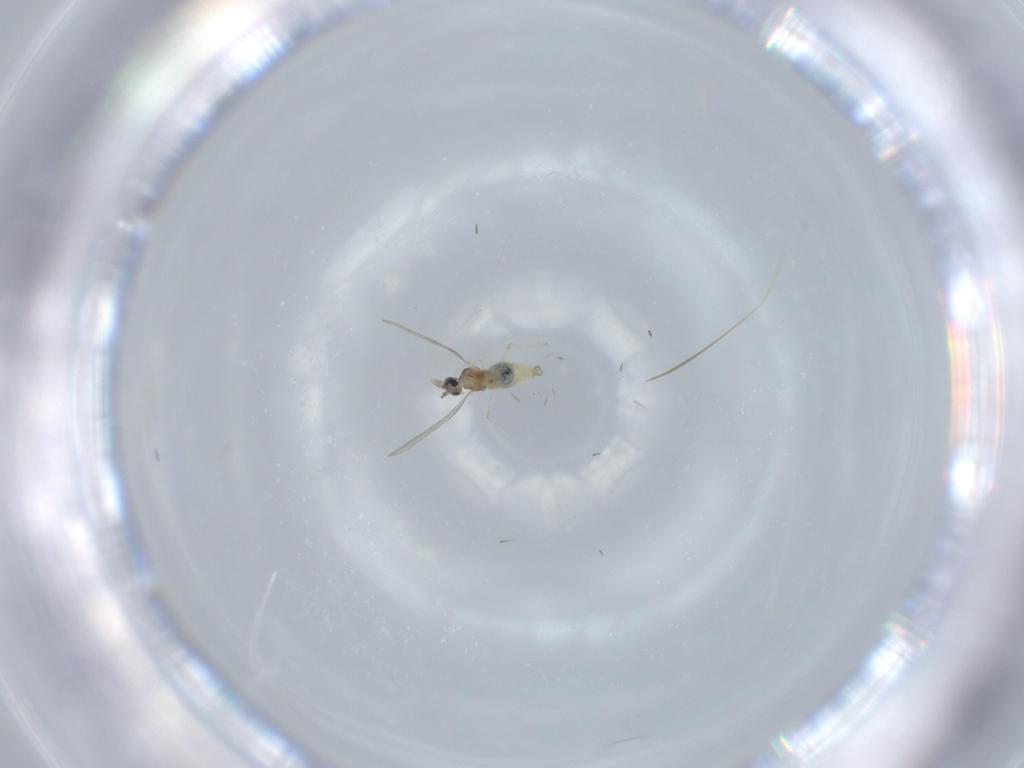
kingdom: Animalia
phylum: Arthropoda
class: Insecta
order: Diptera
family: Cecidomyiidae
